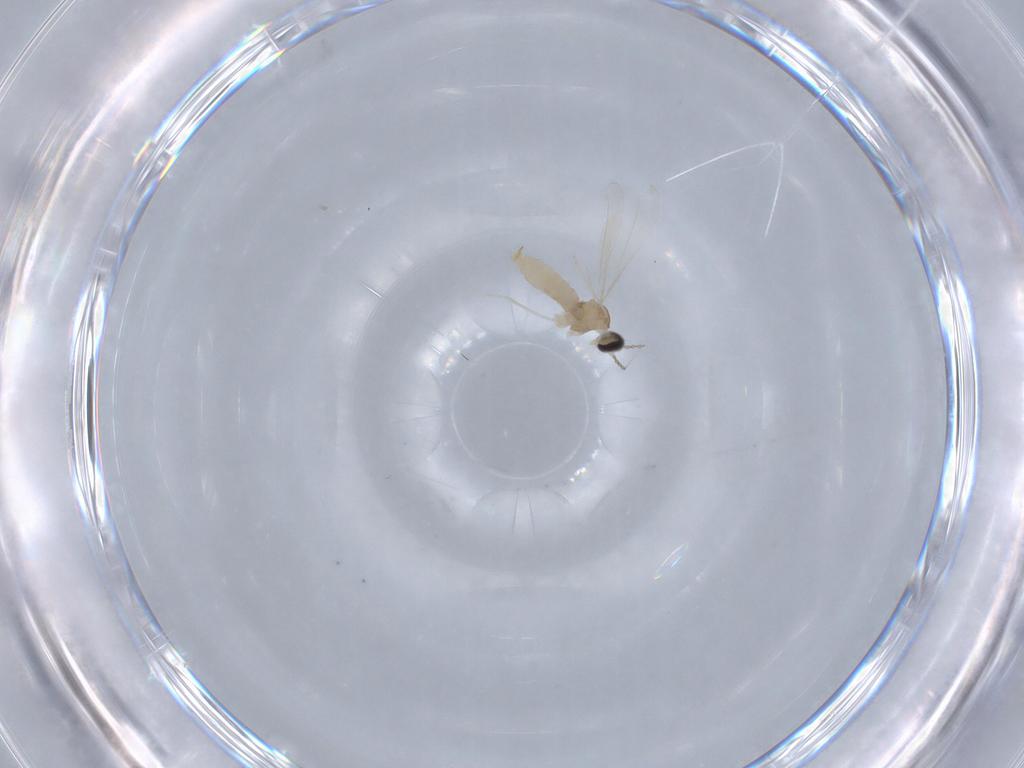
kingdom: Animalia
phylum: Arthropoda
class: Insecta
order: Diptera
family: Cecidomyiidae
